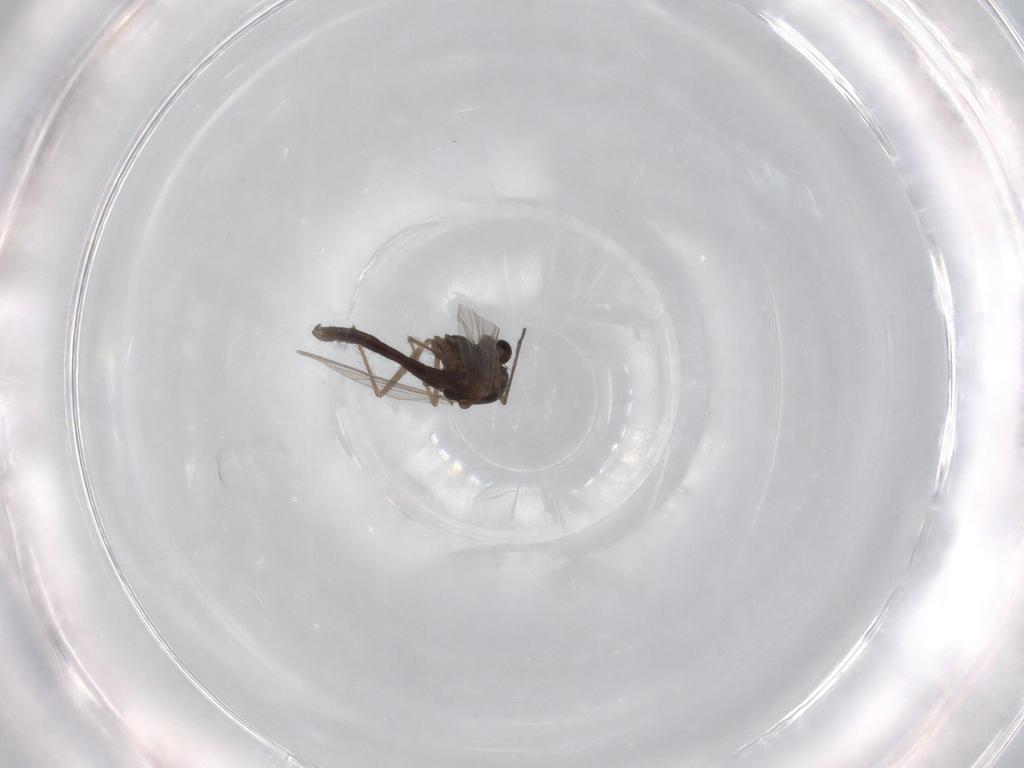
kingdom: Animalia
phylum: Arthropoda
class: Insecta
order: Diptera
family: Chironomidae
